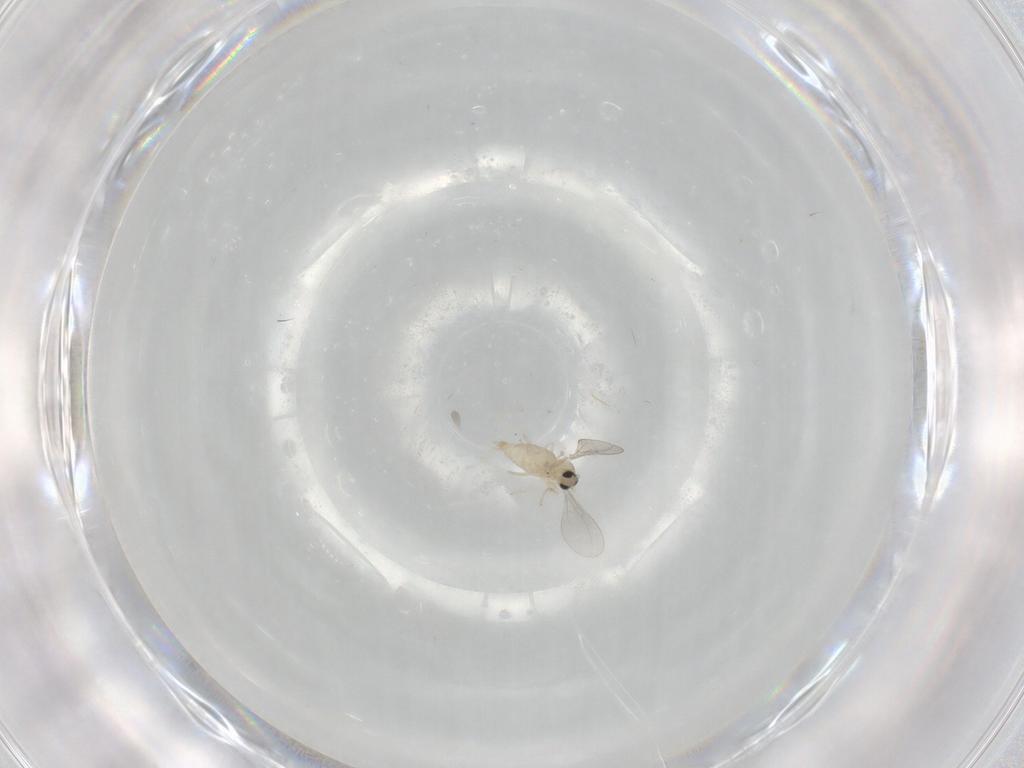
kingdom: Animalia
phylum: Arthropoda
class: Insecta
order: Diptera
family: Cecidomyiidae
